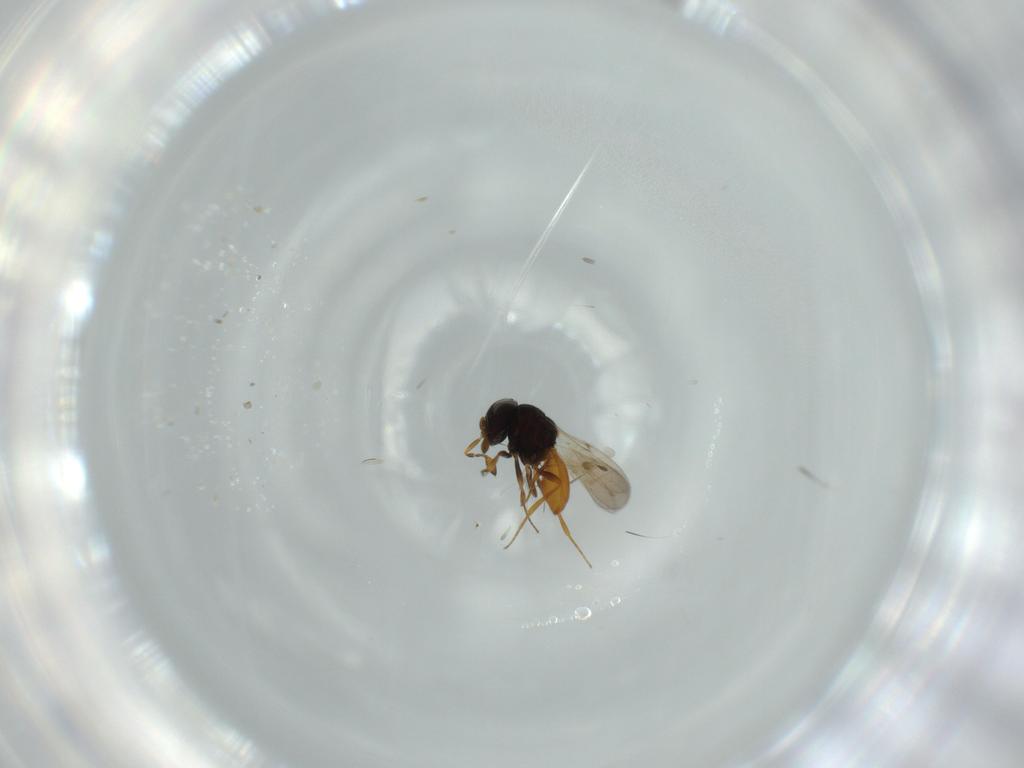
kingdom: Animalia
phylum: Arthropoda
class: Insecta
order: Hymenoptera
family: Scelionidae
